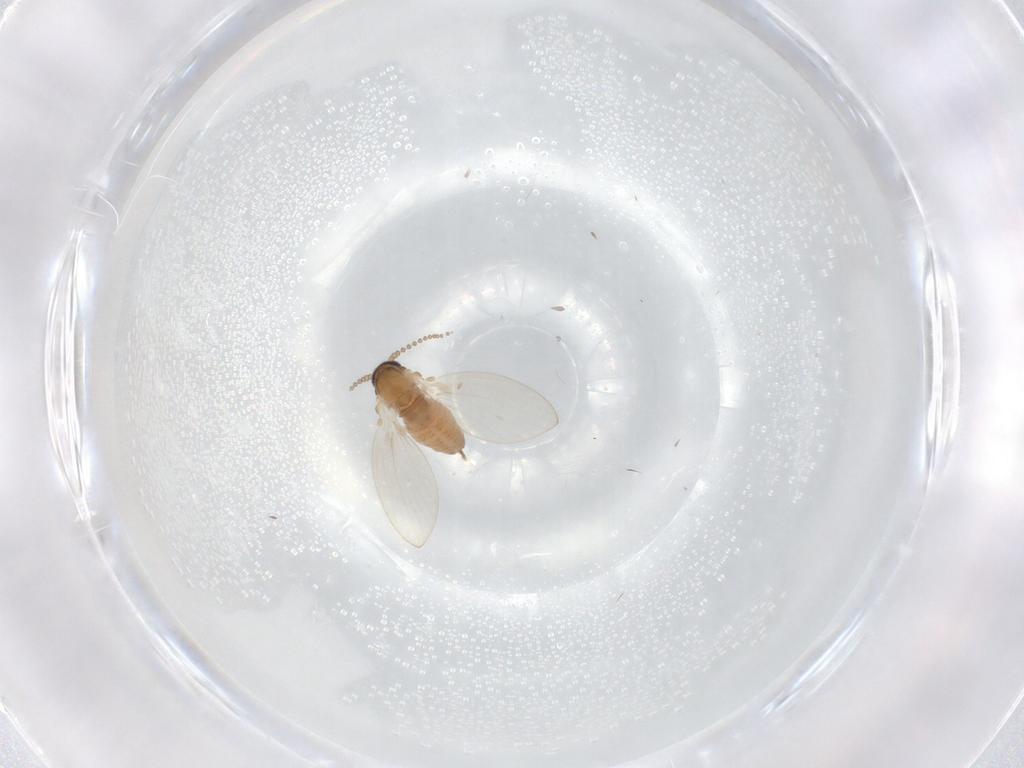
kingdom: Animalia
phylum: Arthropoda
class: Insecta
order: Diptera
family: Psychodidae
